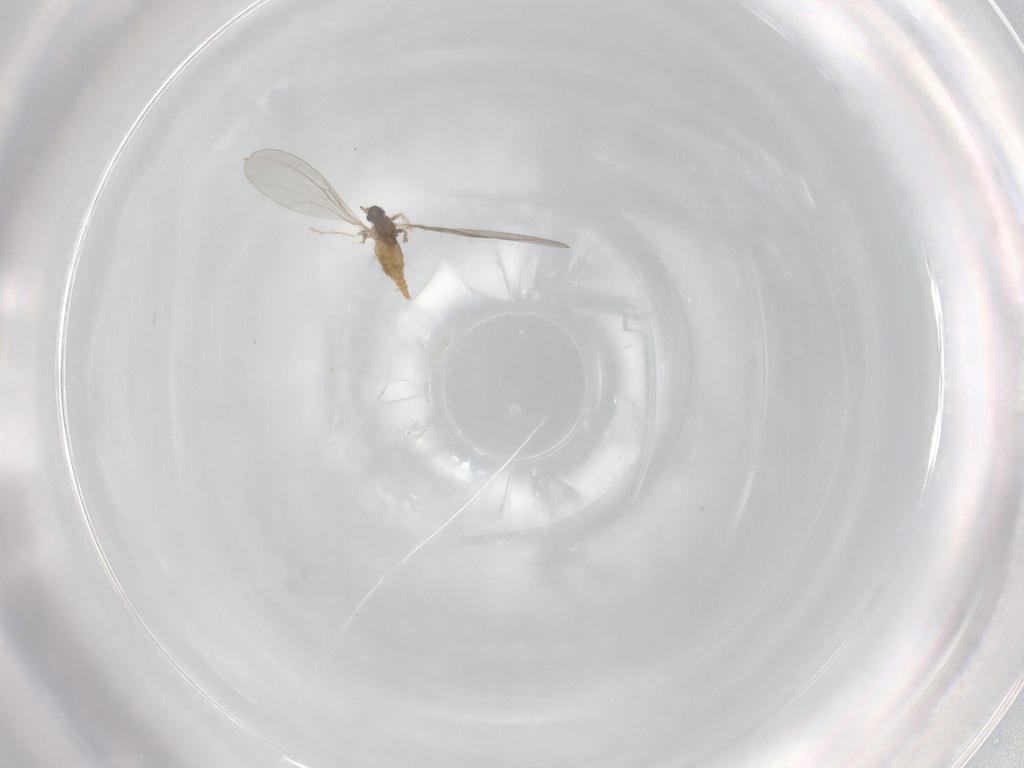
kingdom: Animalia
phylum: Arthropoda
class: Insecta
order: Diptera
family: Cecidomyiidae
